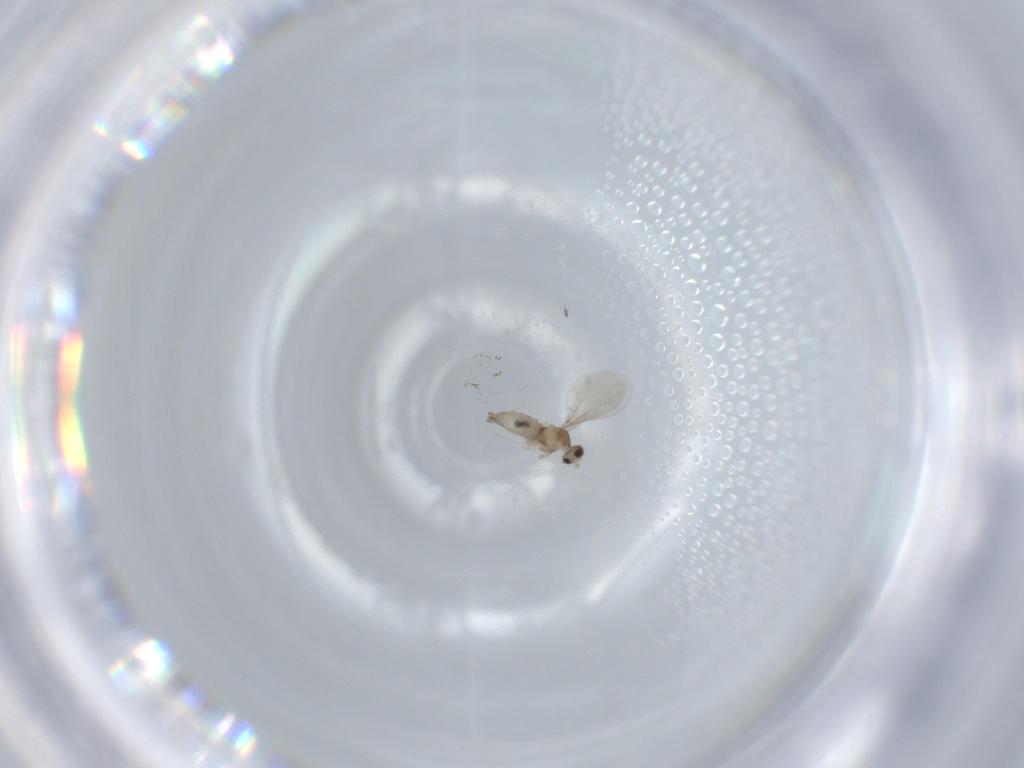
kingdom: Animalia
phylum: Arthropoda
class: Insecta
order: Diptera
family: Cecidomyiidae
